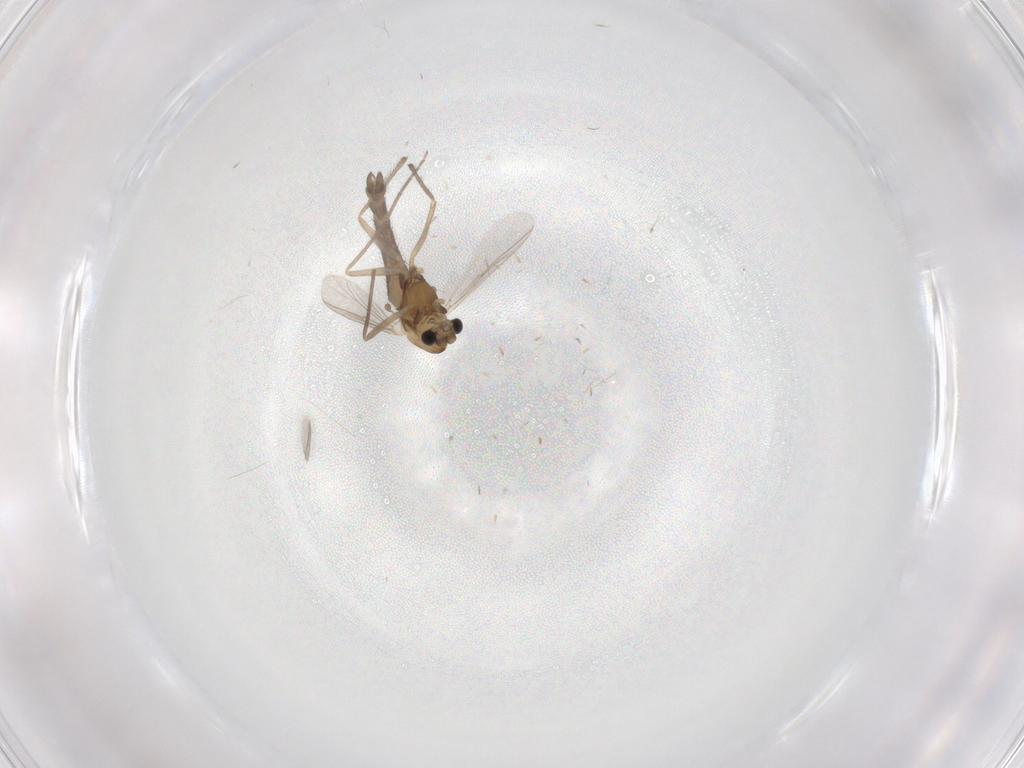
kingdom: Animalia
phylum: Arthropoda
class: Insecta
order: Diptera
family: Chironomidae
